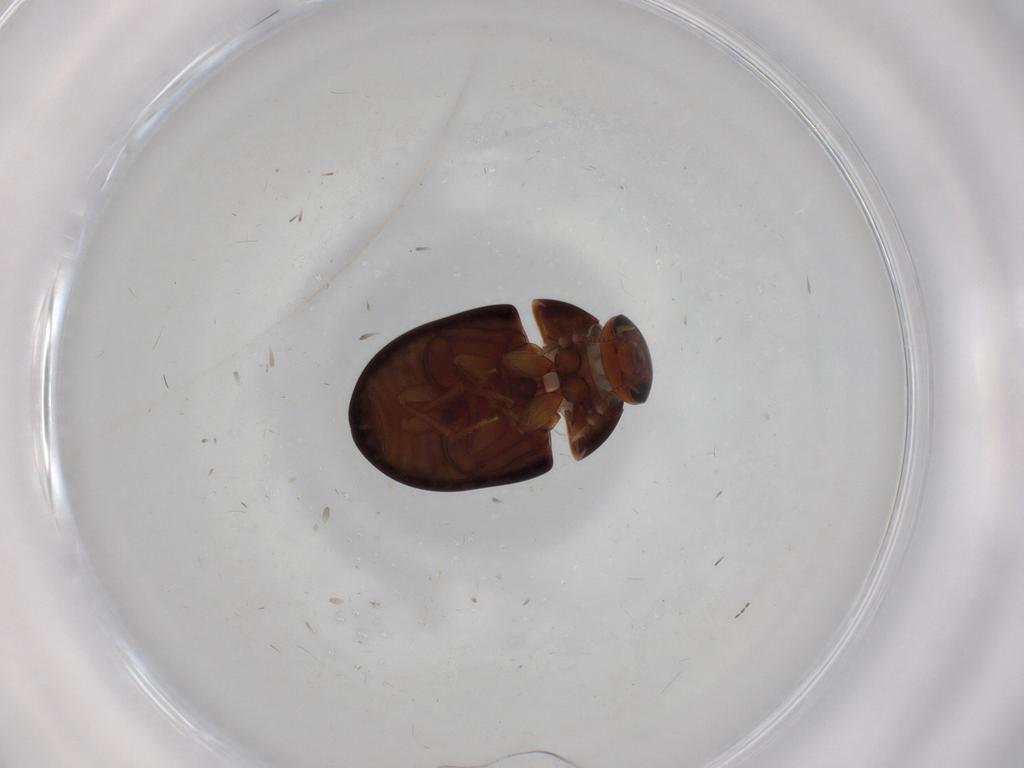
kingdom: Animalia
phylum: Arthropoda
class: Insecta
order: Coleoptera
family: Phalacridae
